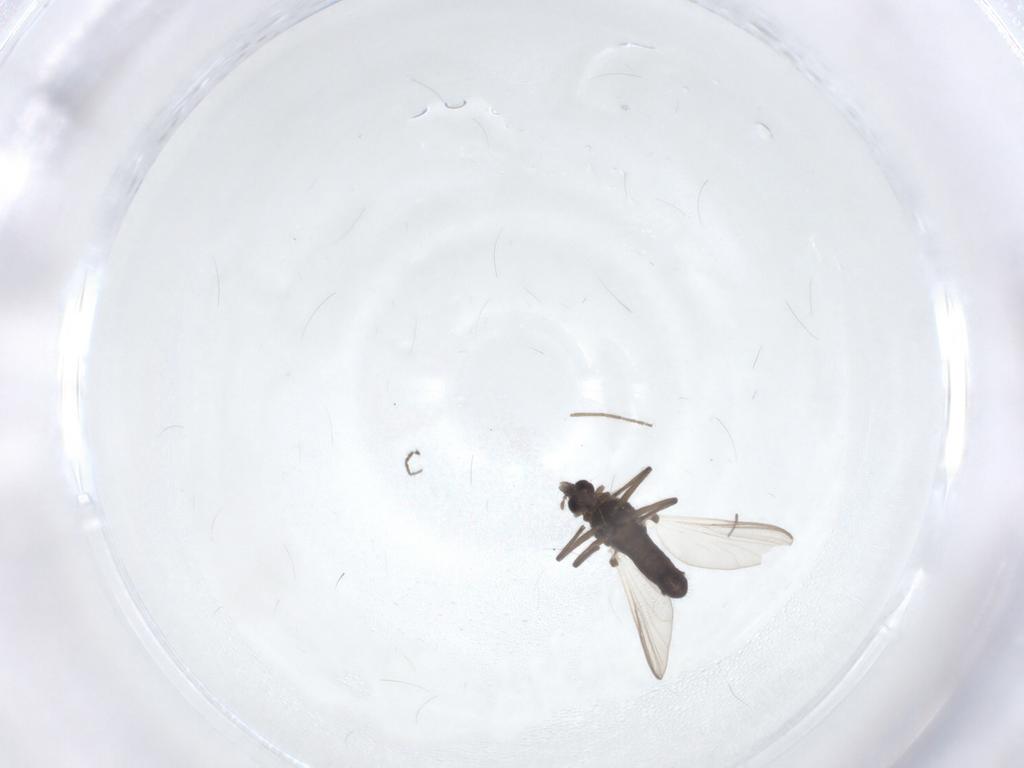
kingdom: Animalia
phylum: Arthropoda
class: Insecta
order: Diptera
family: Chironomidae
